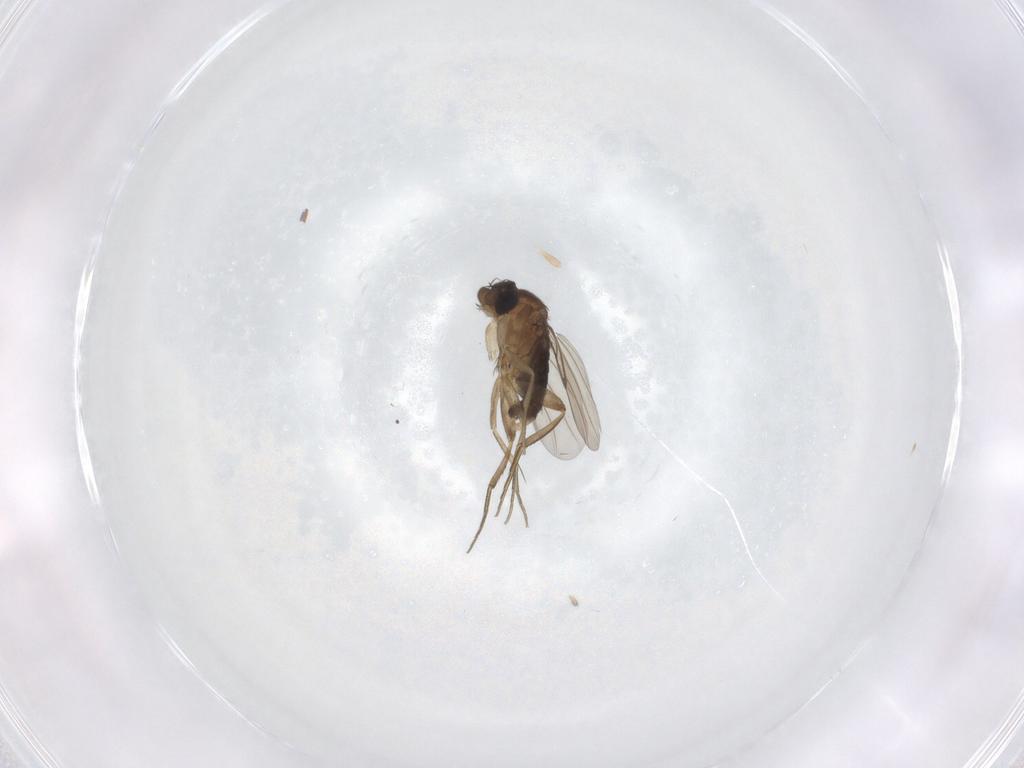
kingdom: Animalia
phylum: Arthropoda
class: Insecta
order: Diptera
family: Phoridae
